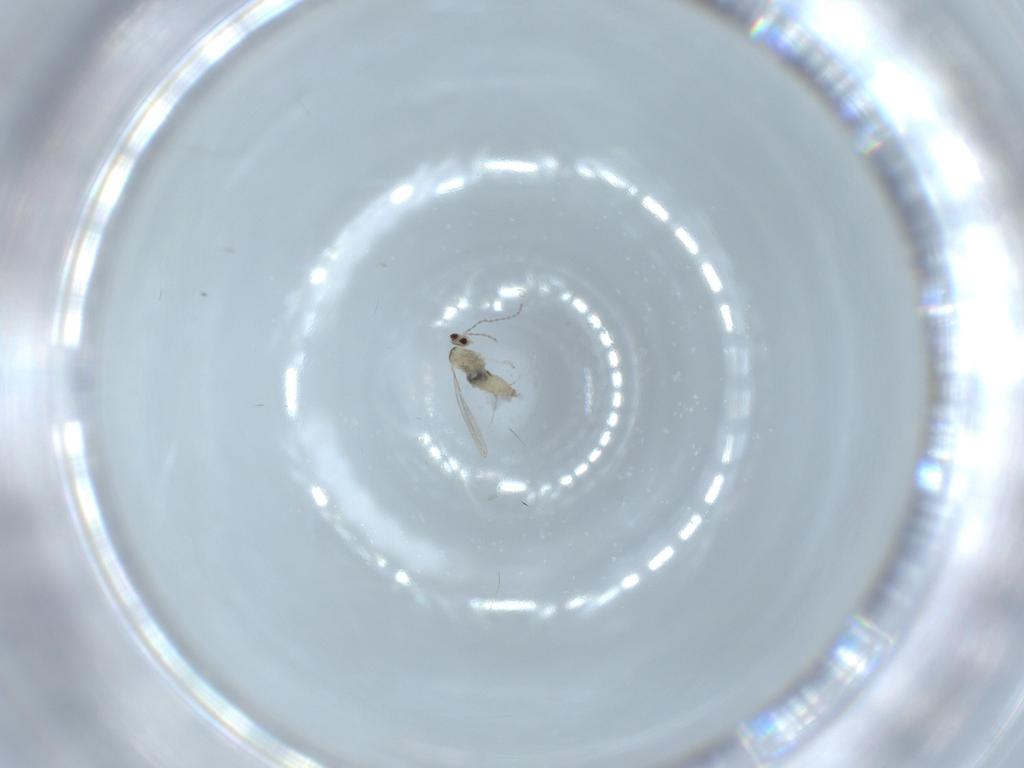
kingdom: Animalia
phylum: Arthropoda
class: Insecta
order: Diptera
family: Cecidomyiidae
